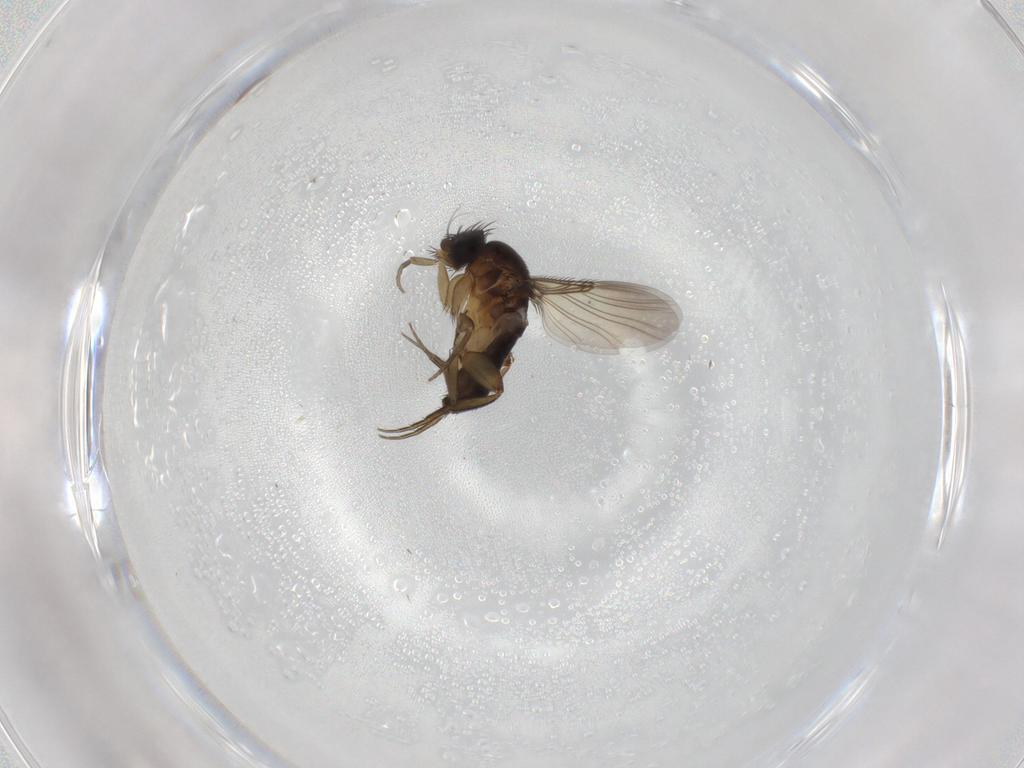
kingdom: Animalia
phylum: Arthropoda
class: Insecta
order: Diptera
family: Phoridae
